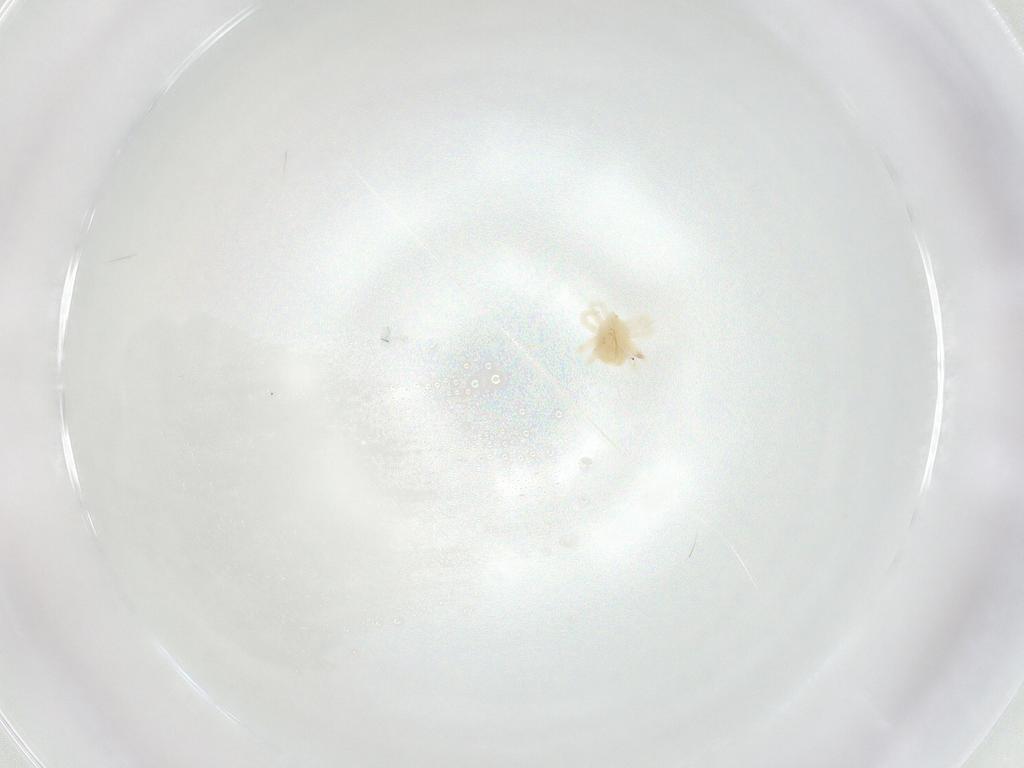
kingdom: Animalia
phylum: Arthropoda
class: Arachnida
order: Trombidiformes
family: Anystidae
